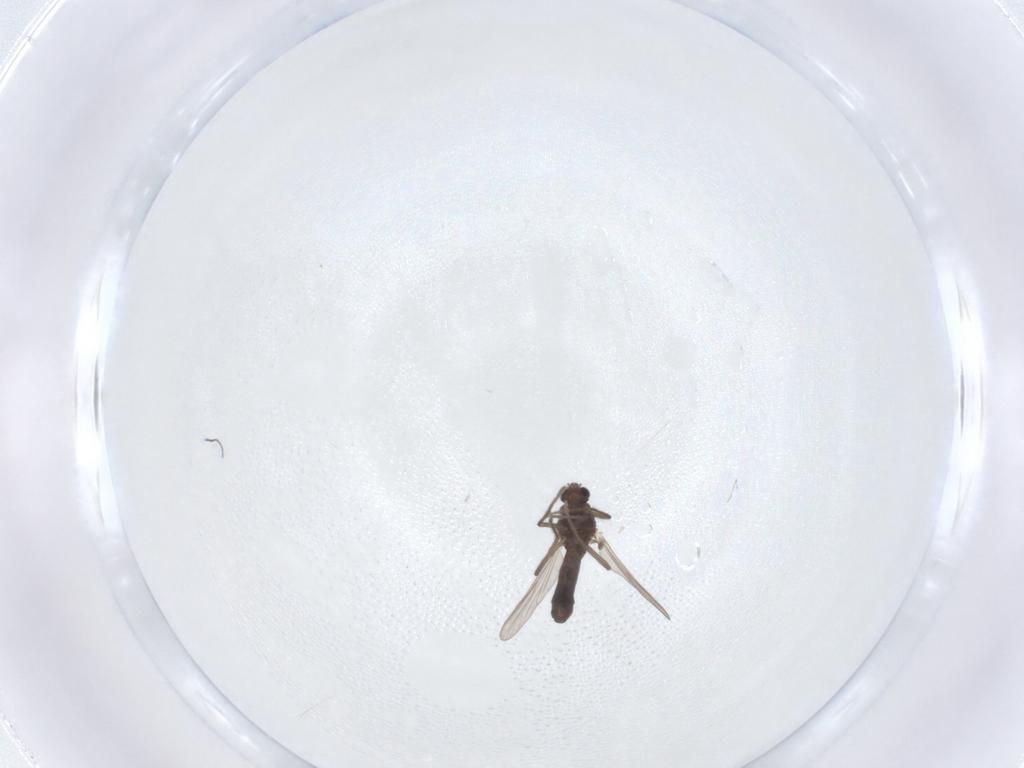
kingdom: Animalia
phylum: Arthropoda
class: Insecta
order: Diptera
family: Chironomidae
